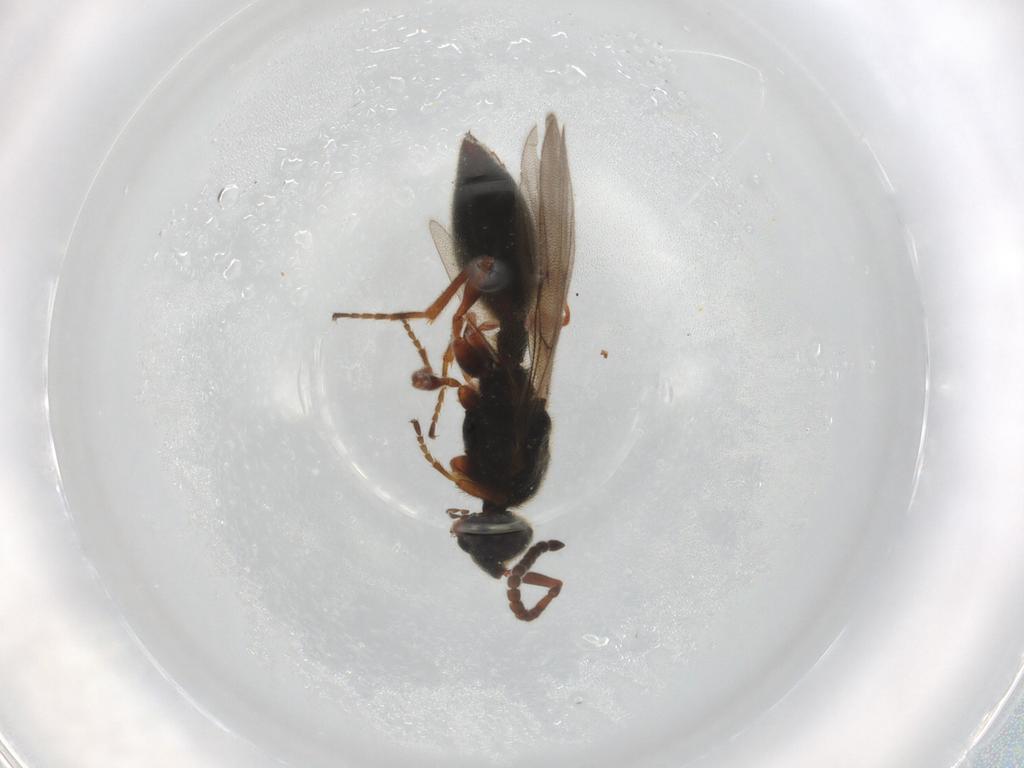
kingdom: Animalia
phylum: Arthropoda
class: Insecta
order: Hymenoptera
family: Diapriidae
